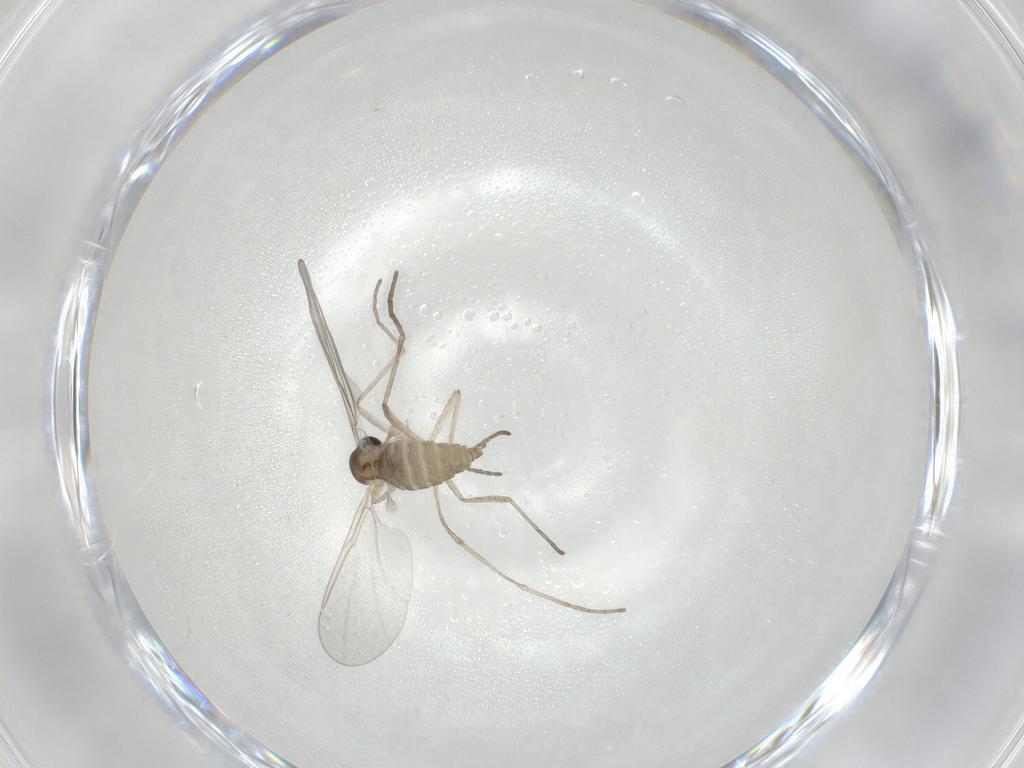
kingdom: Animalia
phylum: Arthropoda
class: Insecta
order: Diptera
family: Cecidomyiidae
